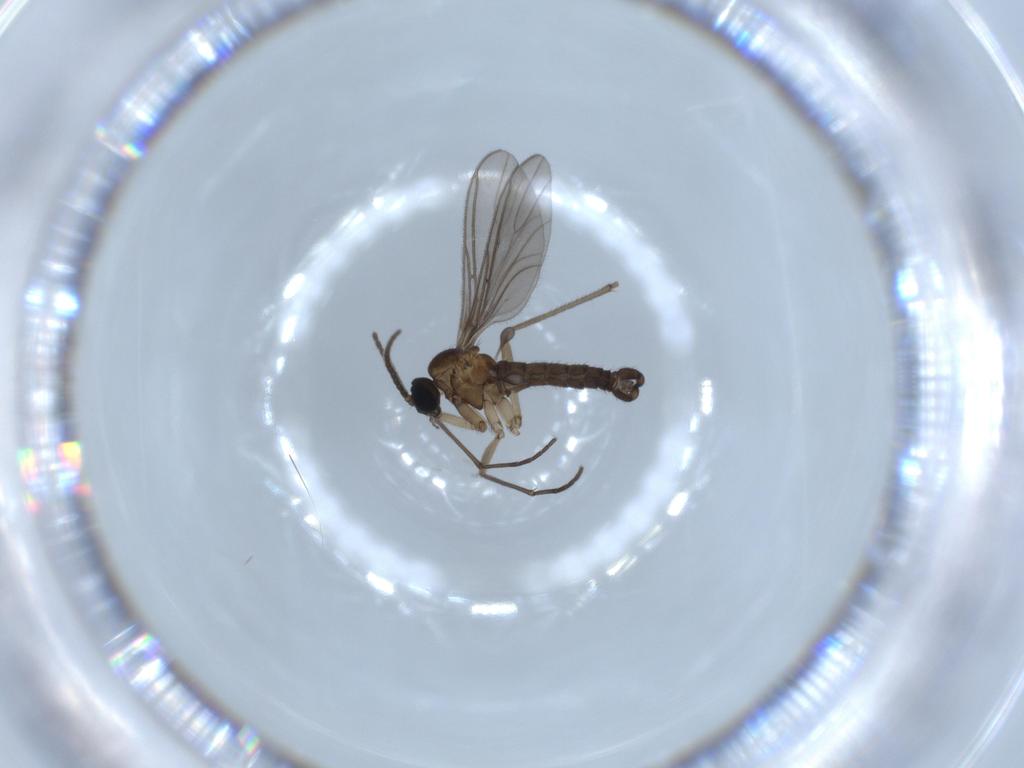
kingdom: Animalia
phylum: Arthropoda
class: Insecta
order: Diptera
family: Sciaridae
